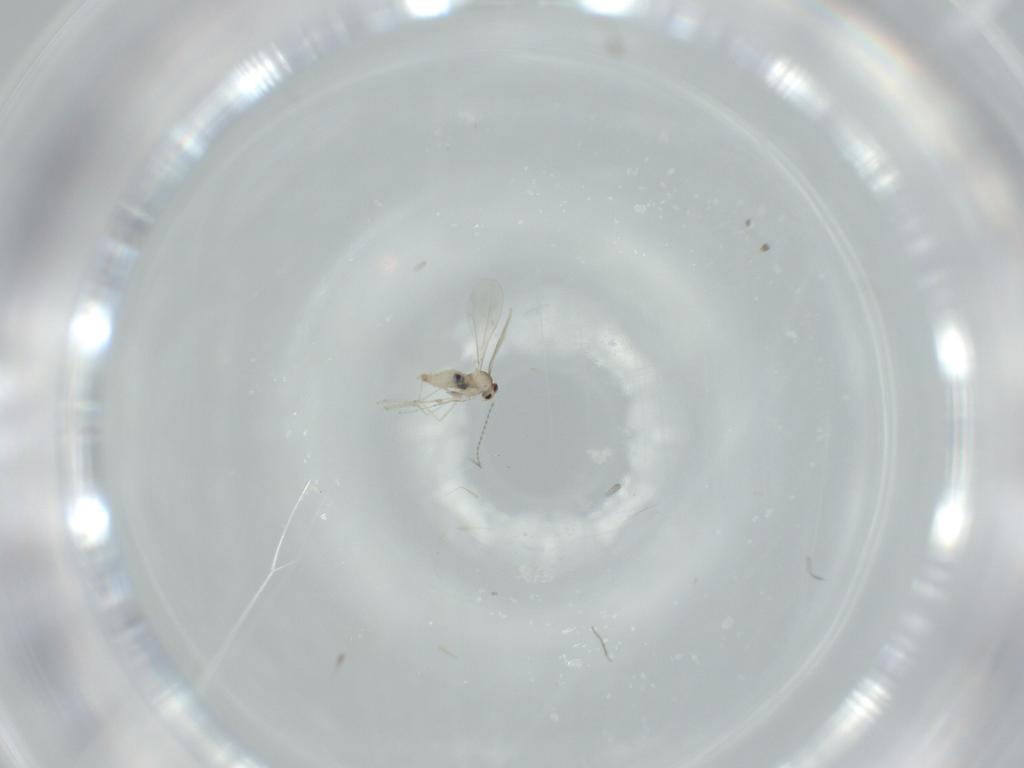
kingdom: Animalia
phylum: Arthropoda
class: Insecta
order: Diptera
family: Cecidomyiidae
